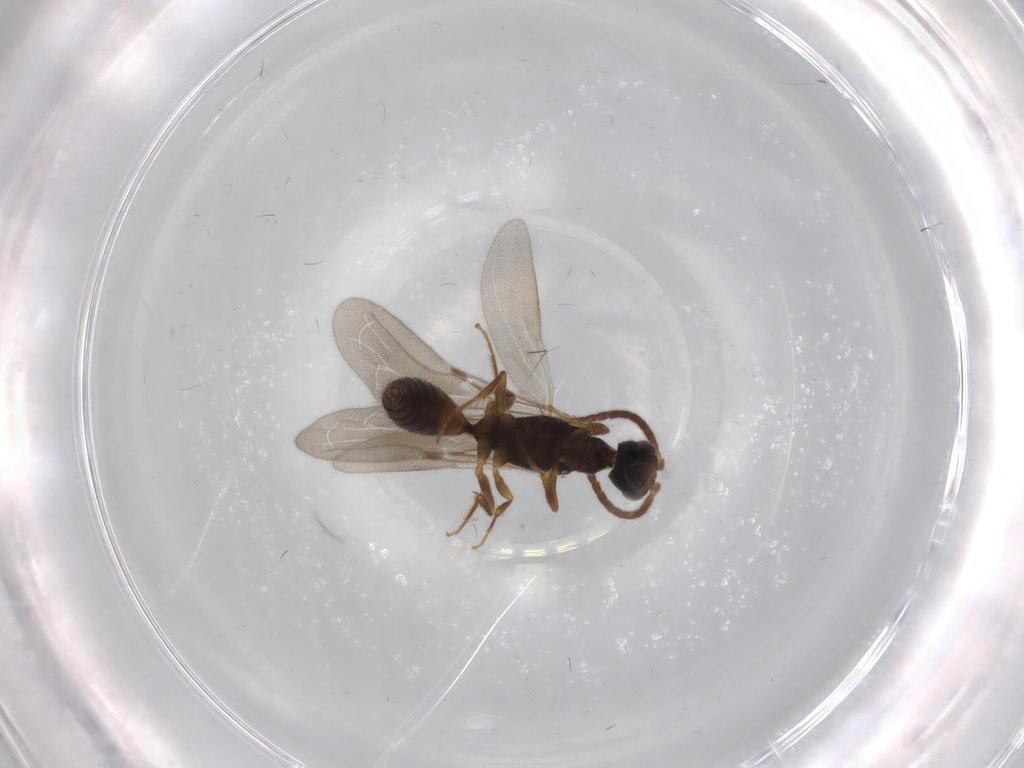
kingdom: Animalia
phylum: Arthropoda
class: Insecta
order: Hymenoptera
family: Bethylidae
